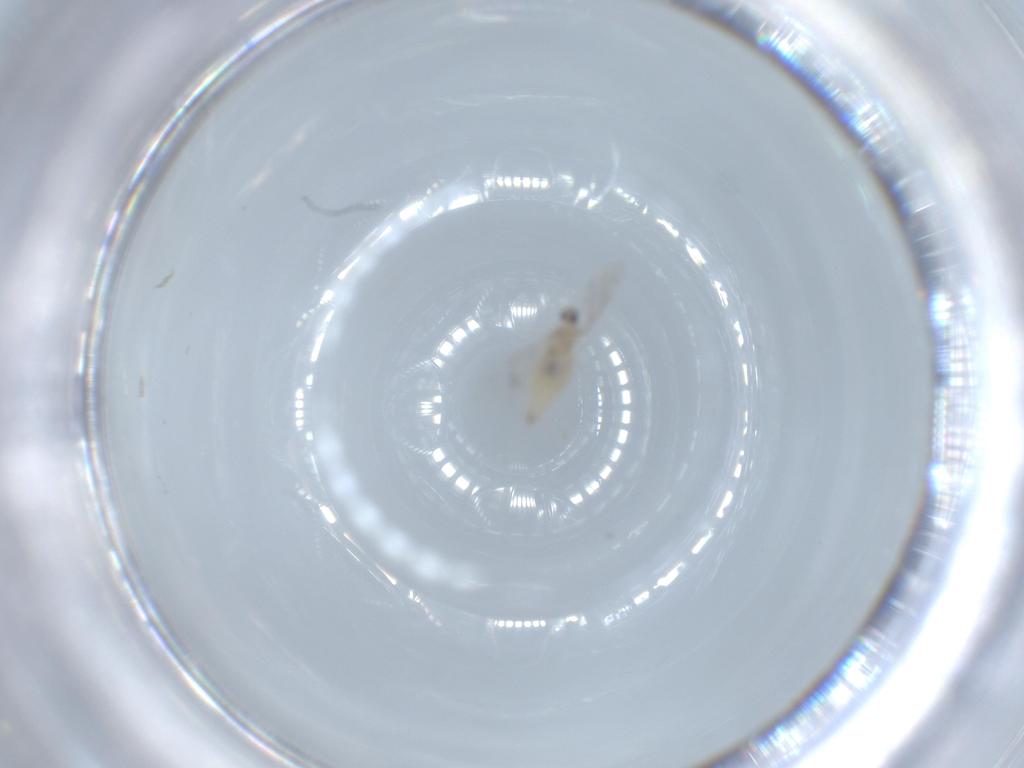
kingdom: Animalia
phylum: Arthropoda
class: Insecta
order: Diptera
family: Cecidomyiidae
